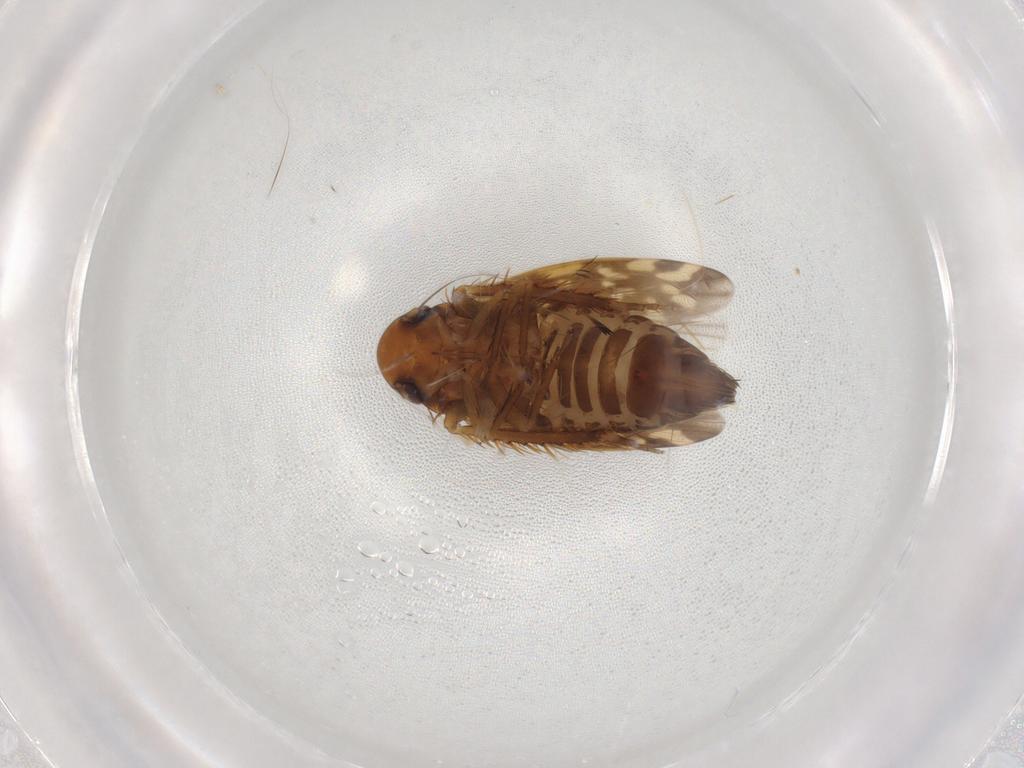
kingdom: Animalia
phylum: Arthropoda
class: Insecta
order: Hemiptera
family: Cicadellidae
